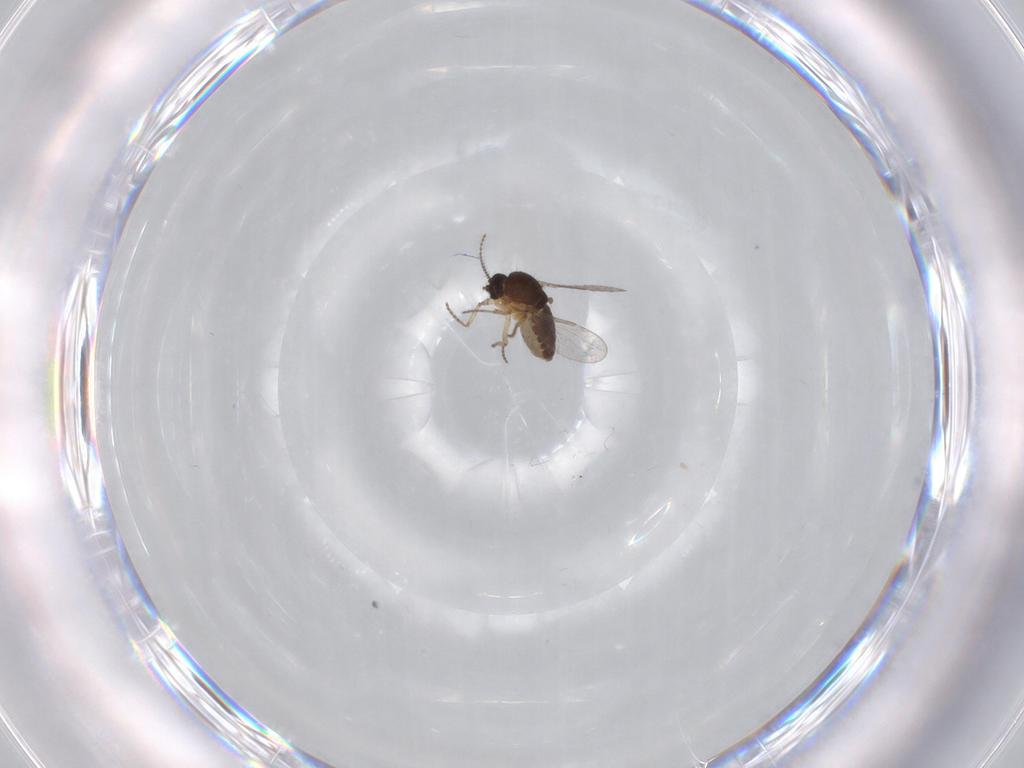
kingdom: Animalia
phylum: Arthropoda
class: Insecta
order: Diptera
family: Ceratopogonidae
